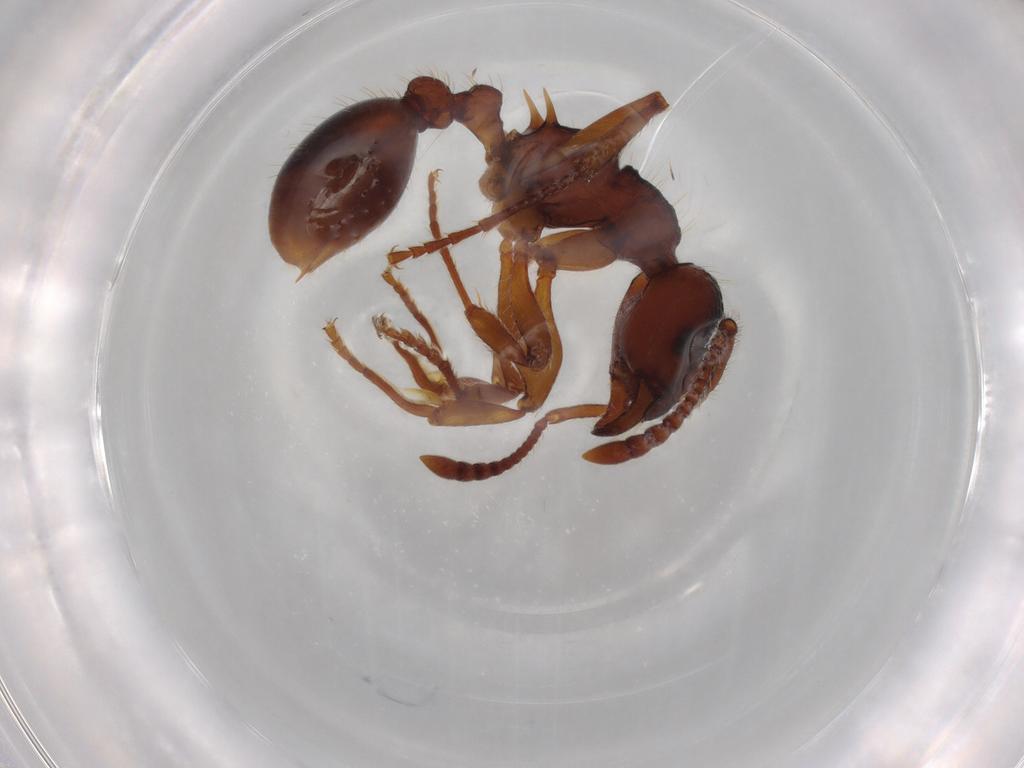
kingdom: Animalia
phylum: Arthropoda
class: Insecta
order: Hymenoptera
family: Formicidae
